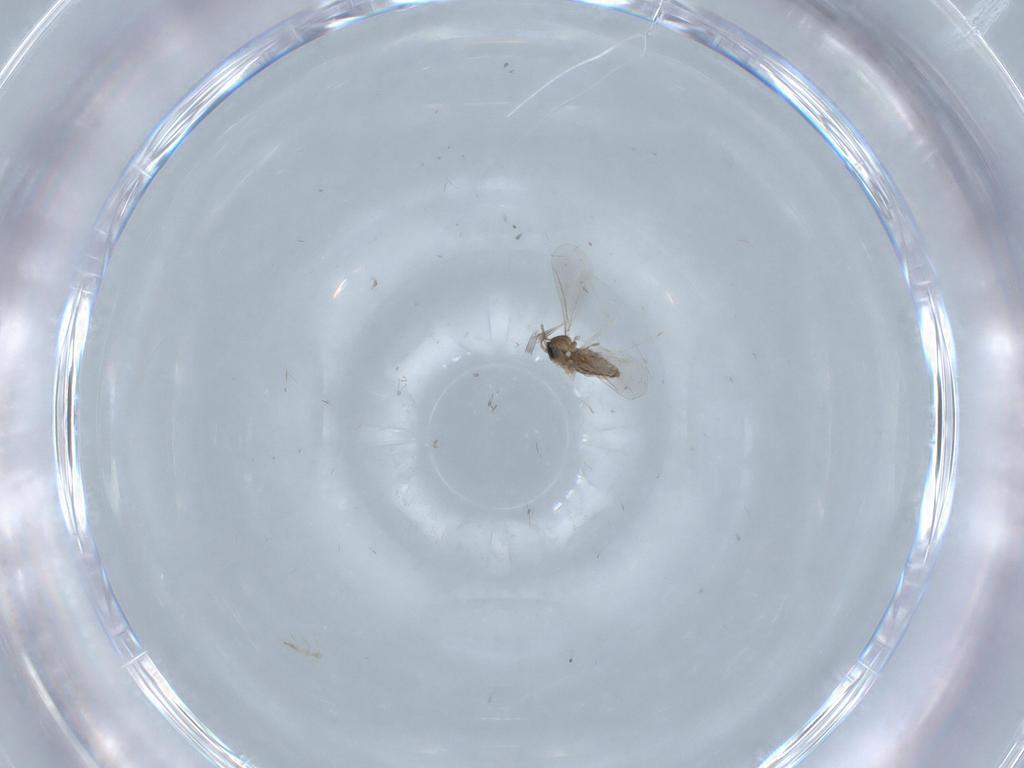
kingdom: Animalia
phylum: Arthropoda
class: Insecta
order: Diptera
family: Cecidomyiidae
